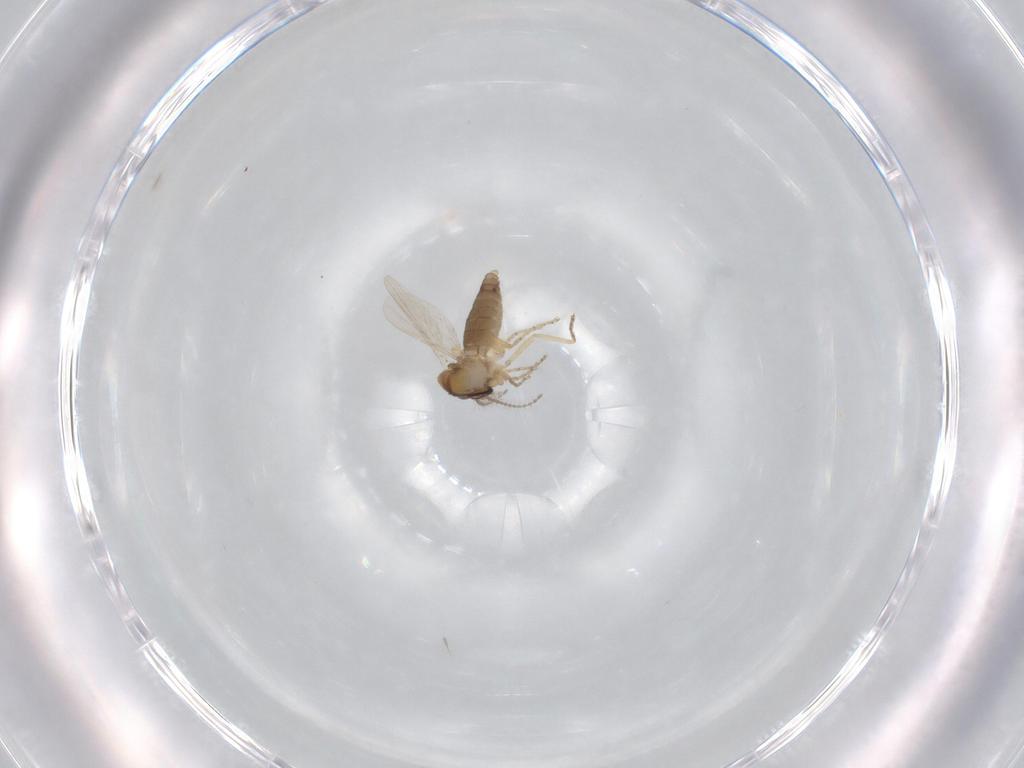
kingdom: Animalia
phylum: Arthropoda
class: Insecta
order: Diptera
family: Ceratopogonidae
